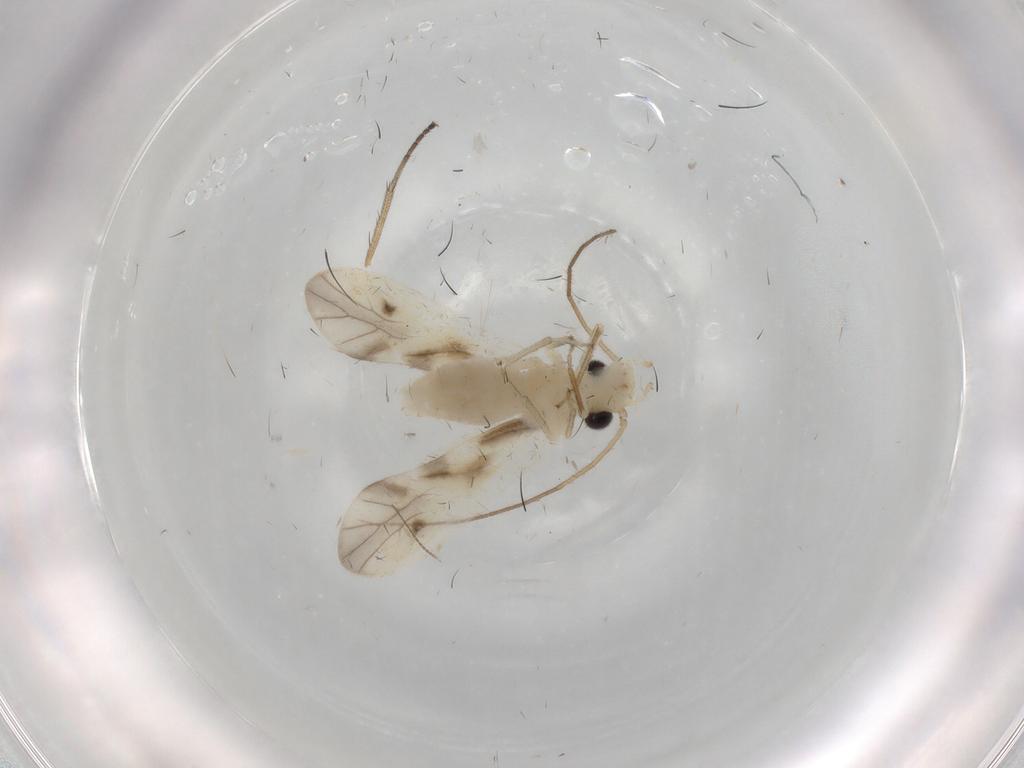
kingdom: Animalia
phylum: Arthropoda
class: Insecta
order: Psocodea
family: Caeciliusidae
